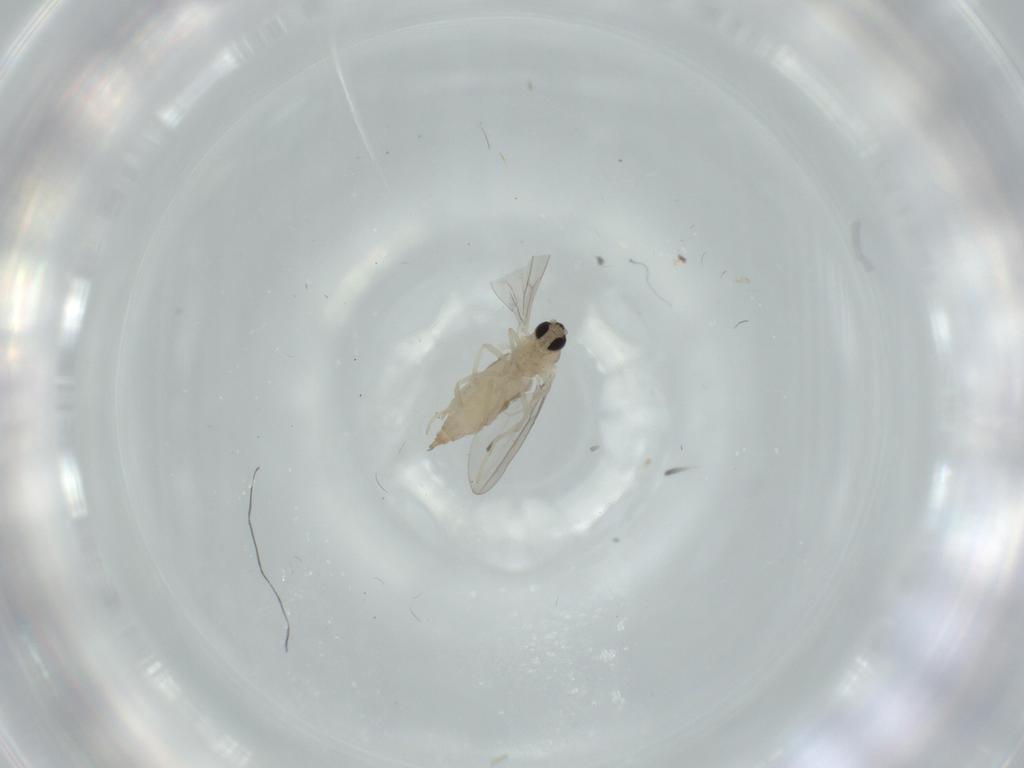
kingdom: Animalia
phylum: Arthropoda
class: Insecta
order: Diptera
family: Cecidomyiidae
